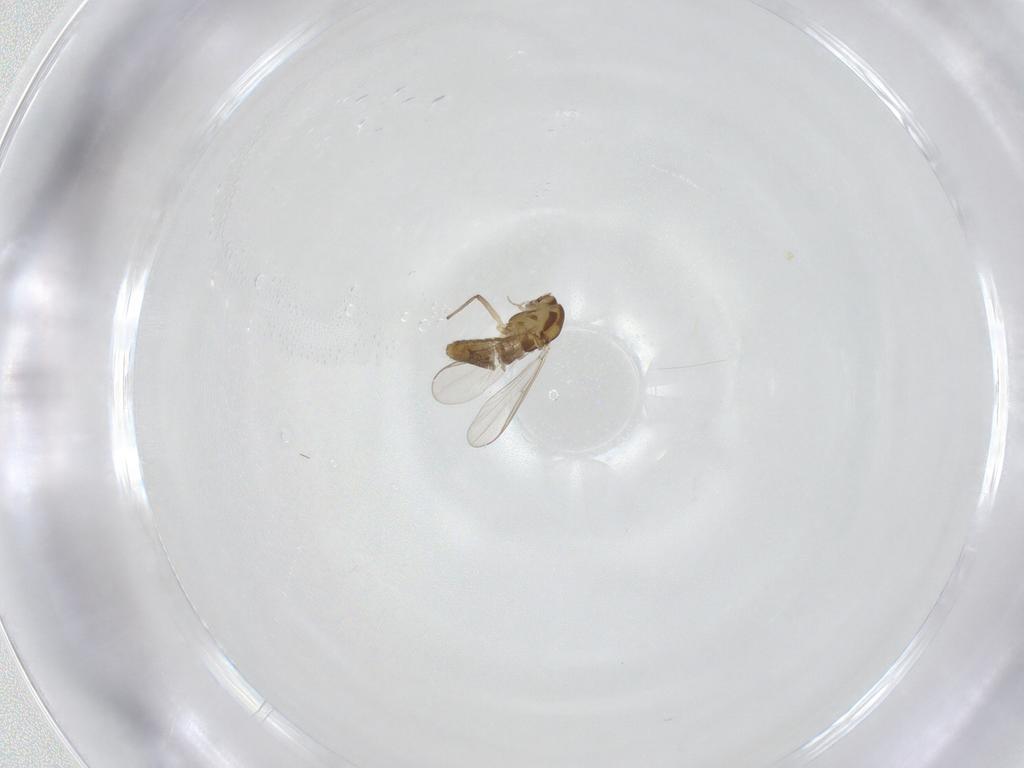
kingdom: Animalia
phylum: Arthropoda
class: Insecta
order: Diptera
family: Chironomidae
